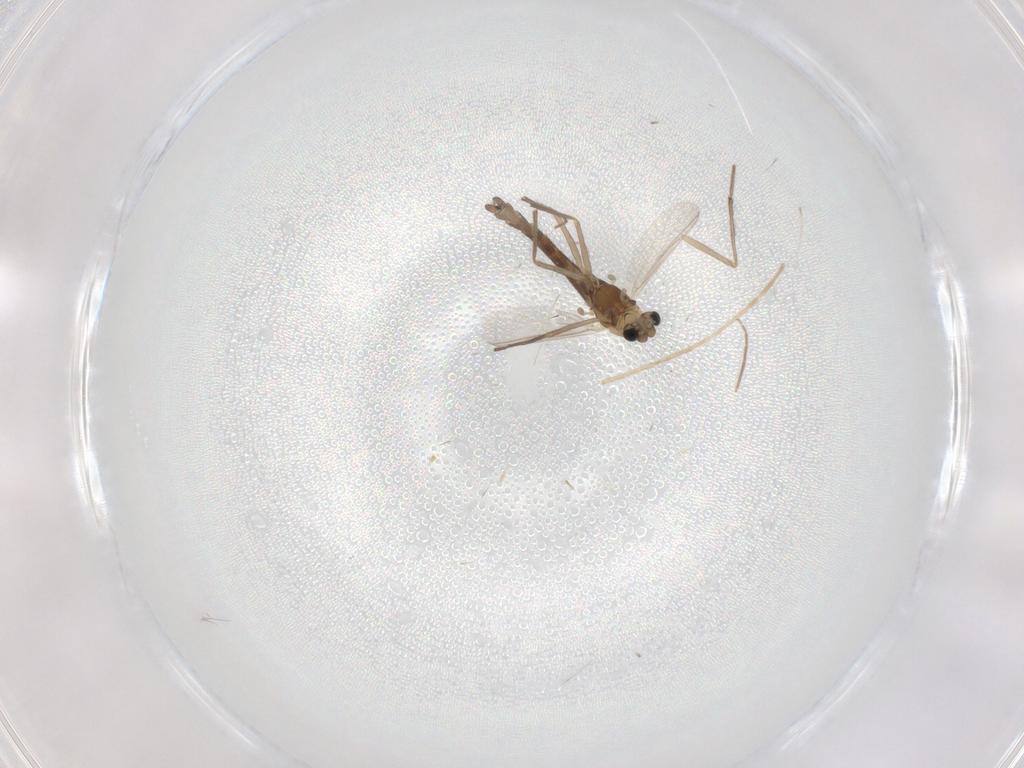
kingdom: Animalia
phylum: Arthropoda
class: Insecta
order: Diptera
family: Chironomidae
